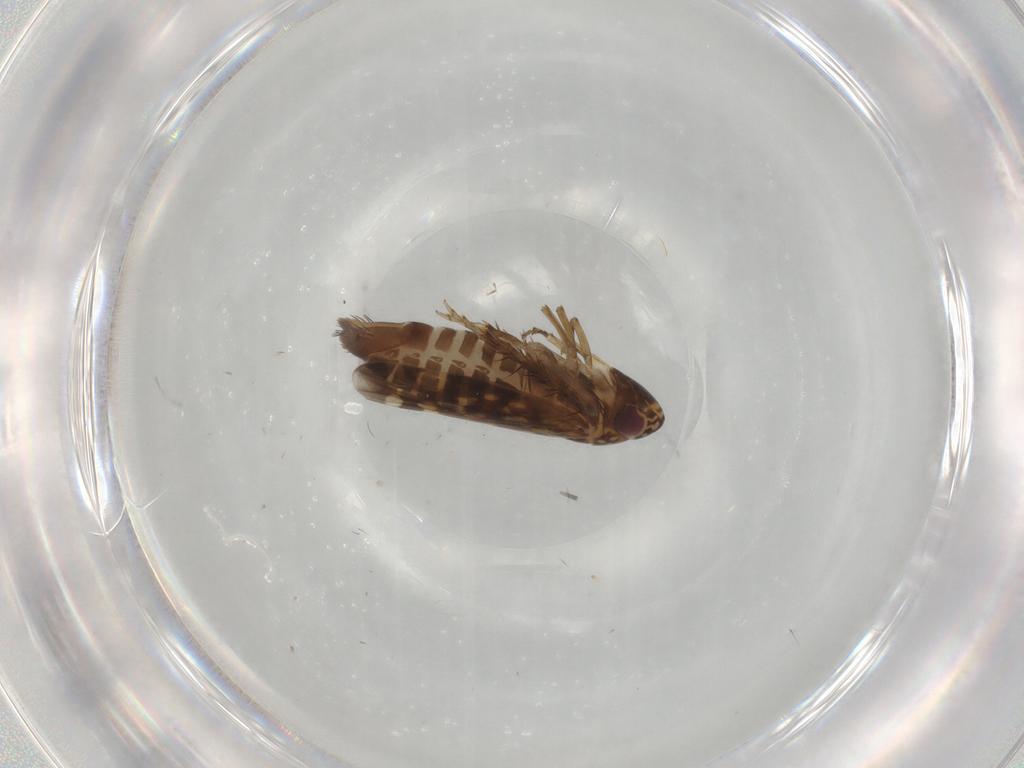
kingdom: Animalia
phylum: Arthropoda
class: Insecta
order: Hemiptera
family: Cicadellidae
